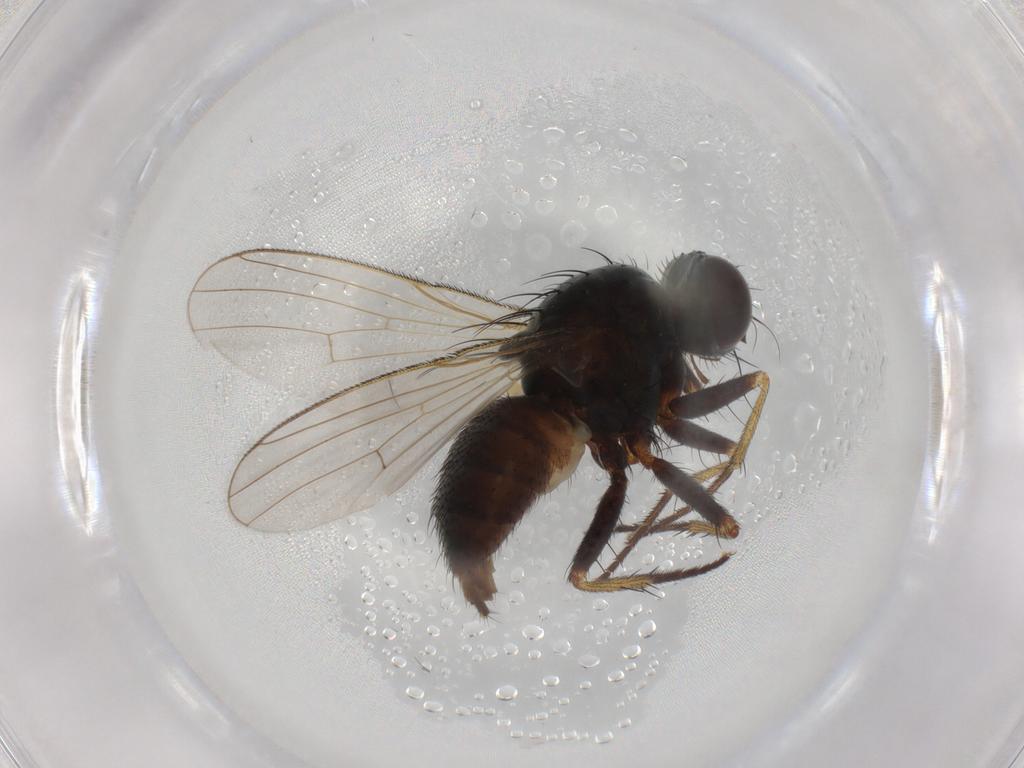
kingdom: Animalia
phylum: Arthropoda
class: Insecta
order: Diptera
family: Muscidae
